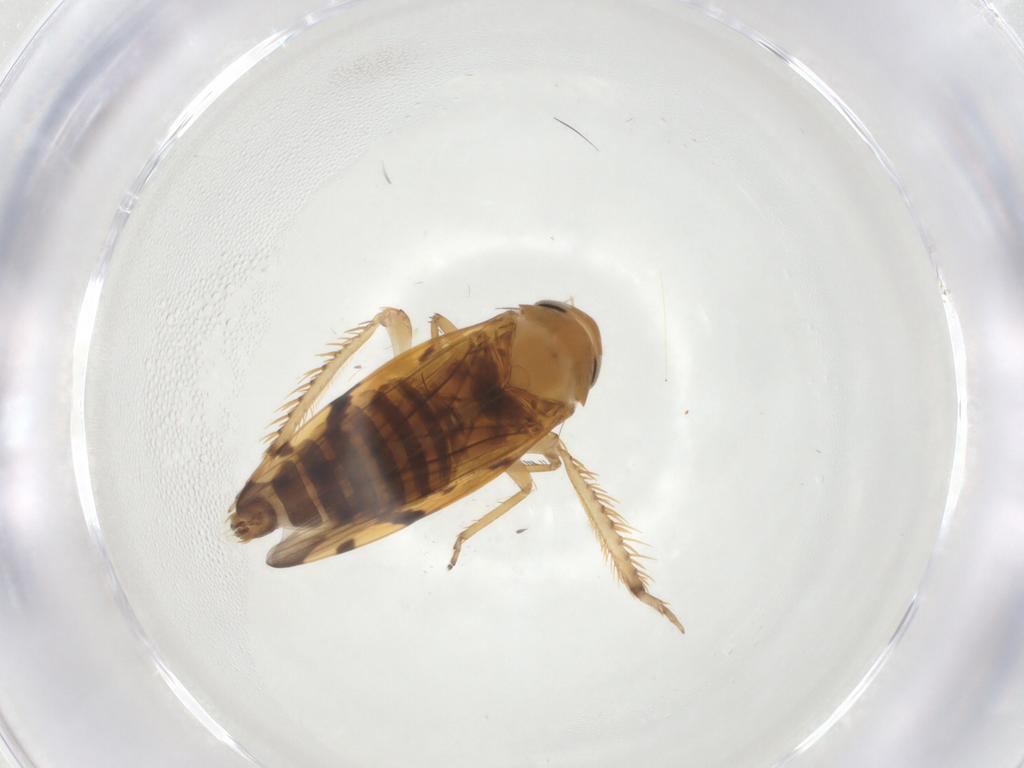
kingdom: Animalia
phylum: Arthropoda
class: Insecta
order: Hemiptera
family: Cicadellidae
